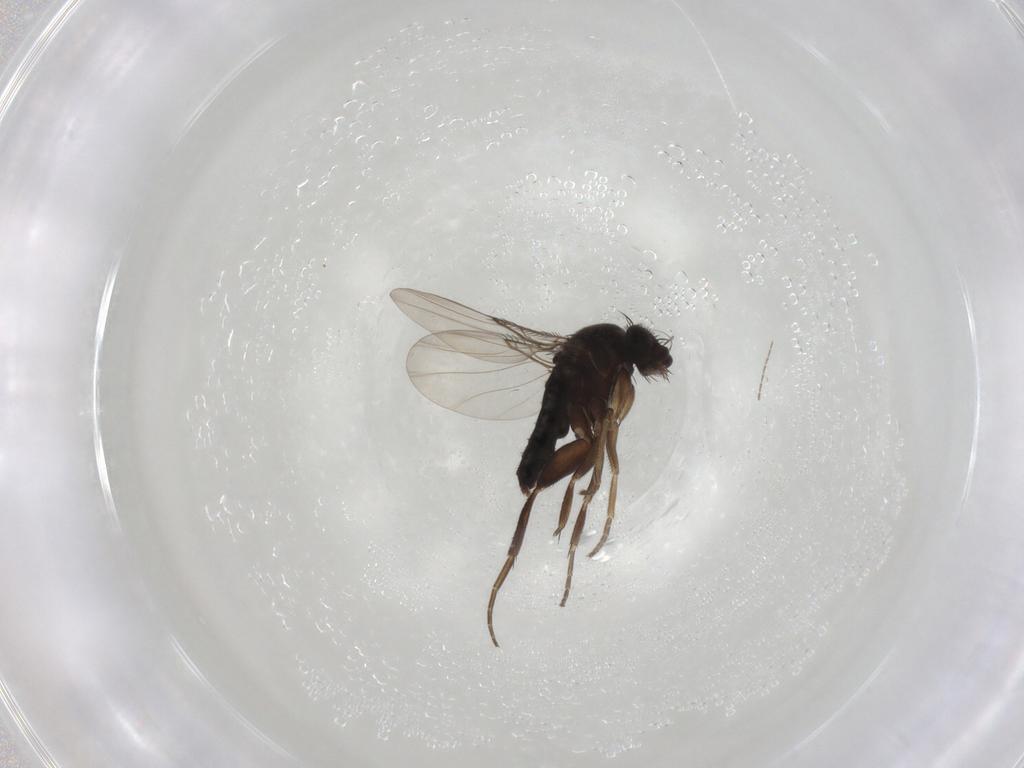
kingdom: Animalia
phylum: Arthropoda
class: Insecta
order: Diptera
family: Phoridae
